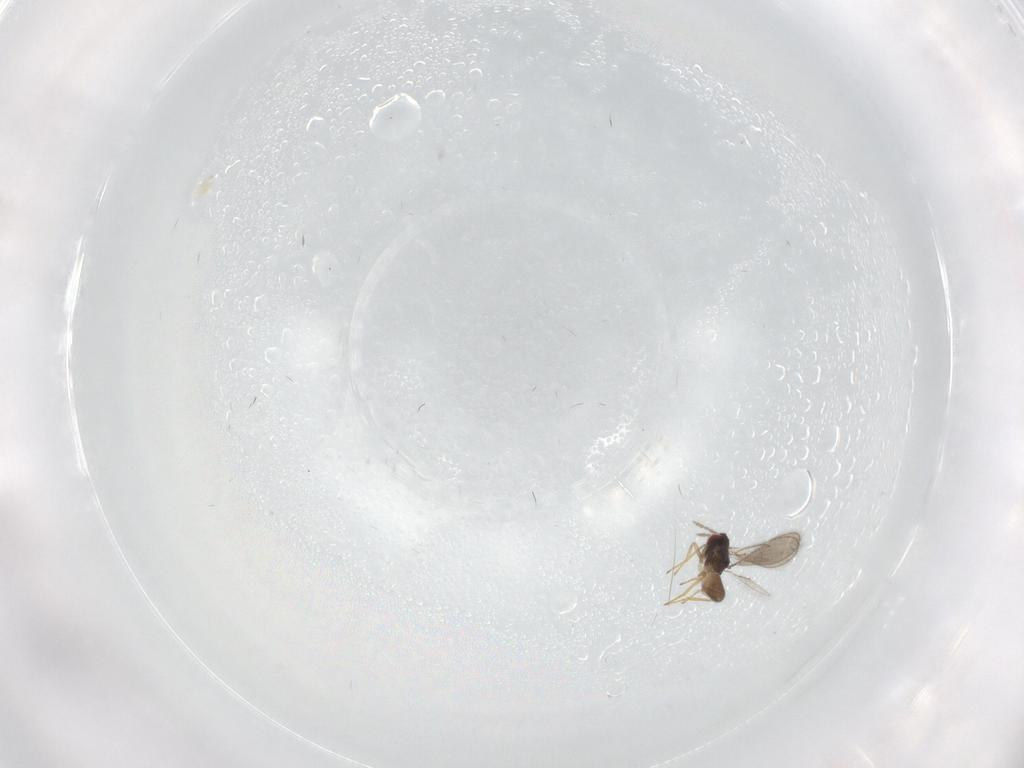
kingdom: Animalia
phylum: Arthropoda
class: Insecta
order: Hymenoptera
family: Eulophidae
